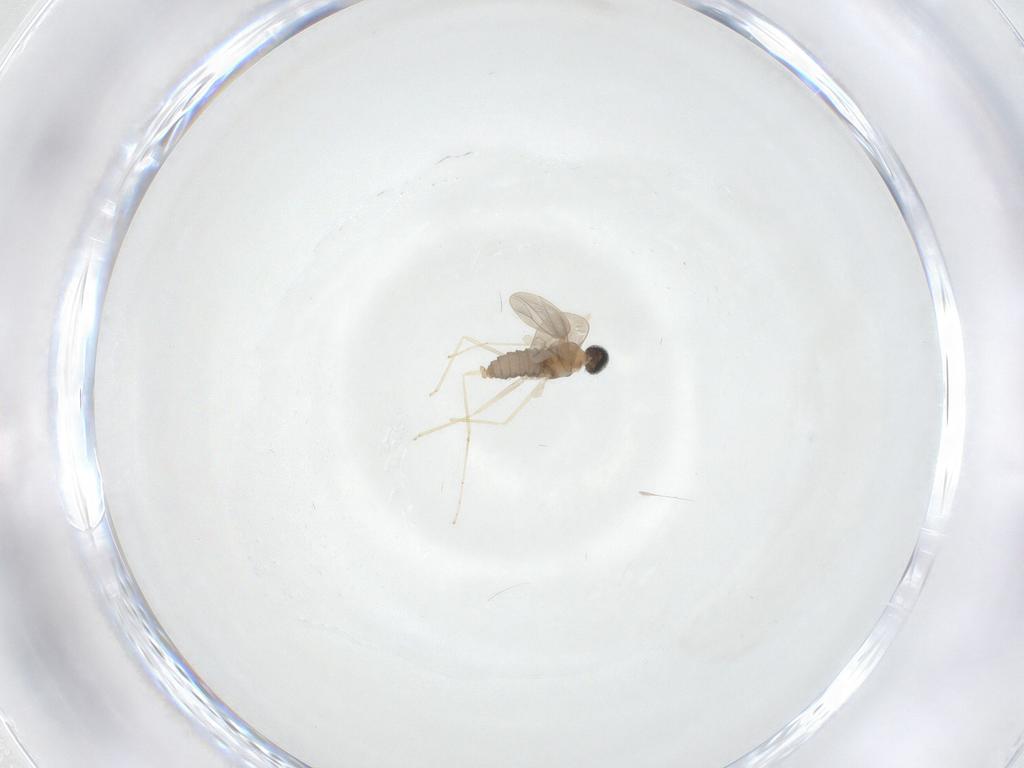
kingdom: Animalia
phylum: Arthropoda
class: Insecta
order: Diptera
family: Cecidomyiidae
